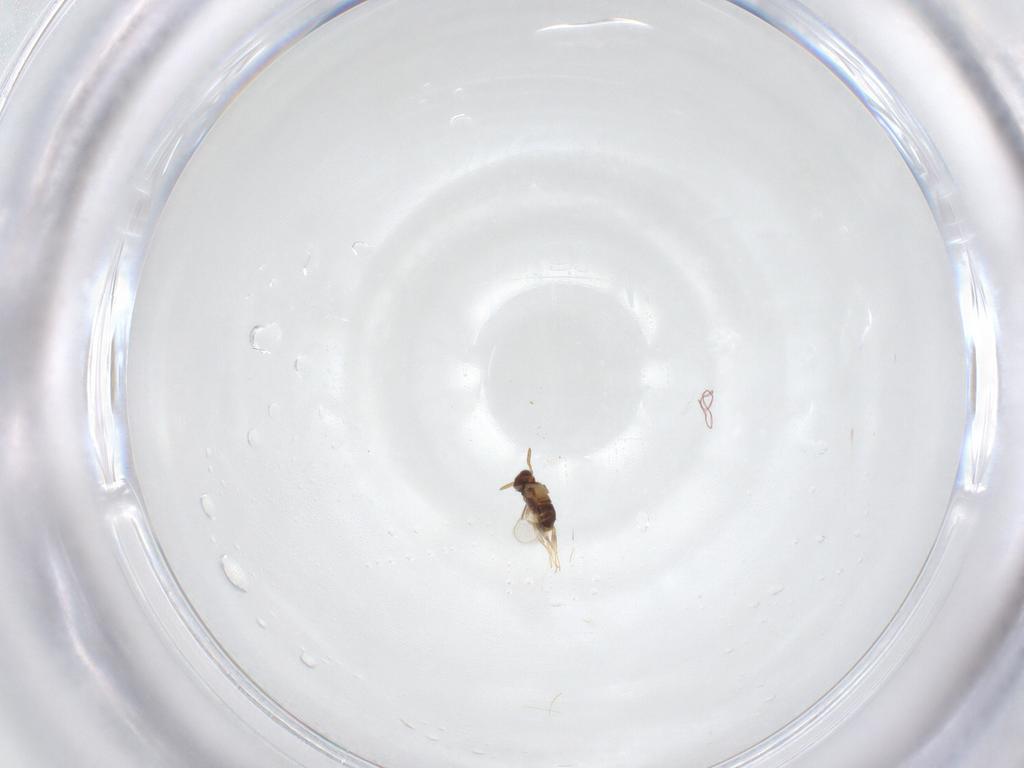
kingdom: Animalia
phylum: Arthropoda
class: Insecta
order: Hymenoptera
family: Aphelinidae
